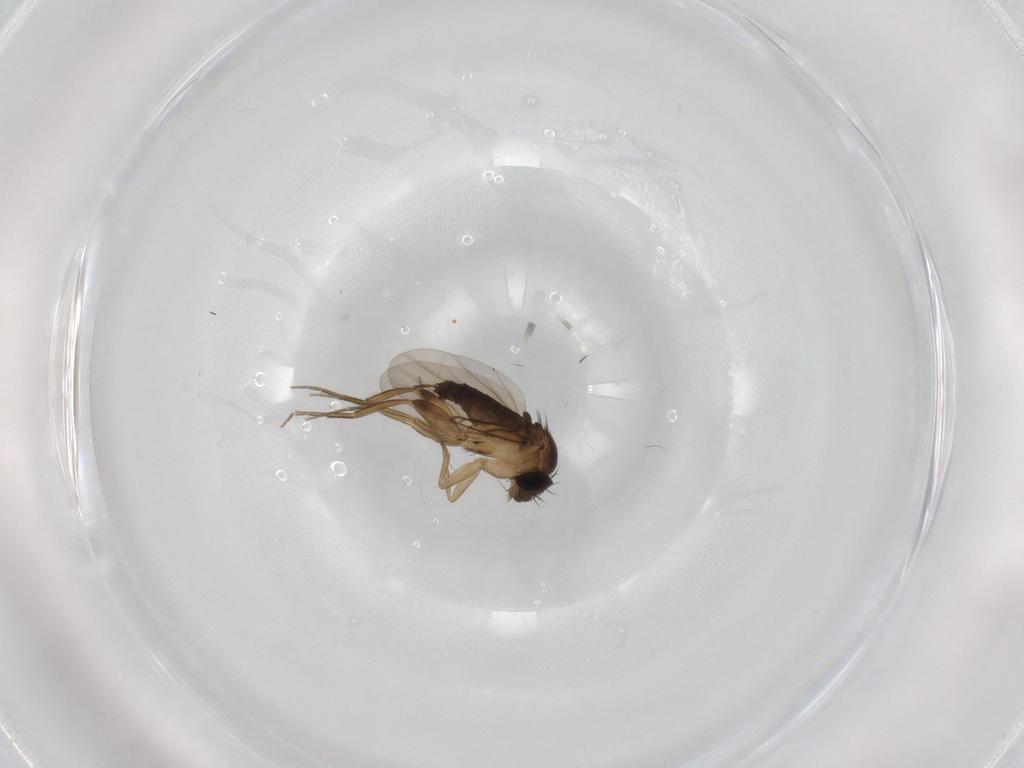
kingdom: Animalia
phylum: Arthropoda
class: Insecta
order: Diptera
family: Phoridae
